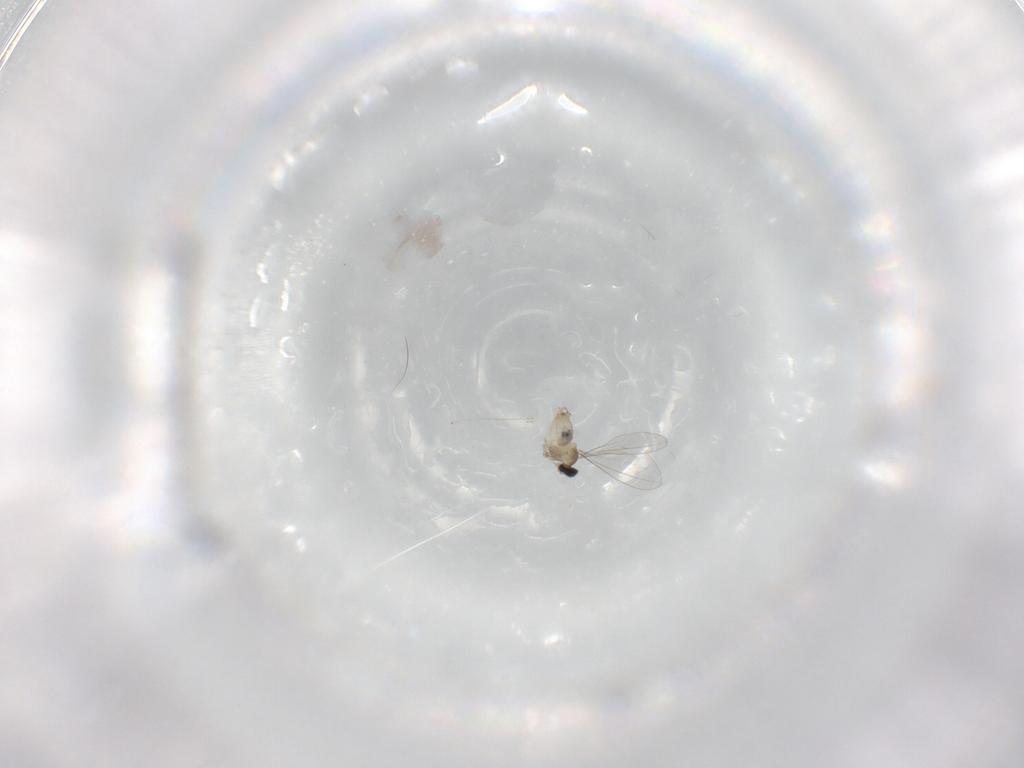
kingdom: Animalia
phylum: Arthropoda
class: Insecta
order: Diptera
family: Cecidomyiidae
